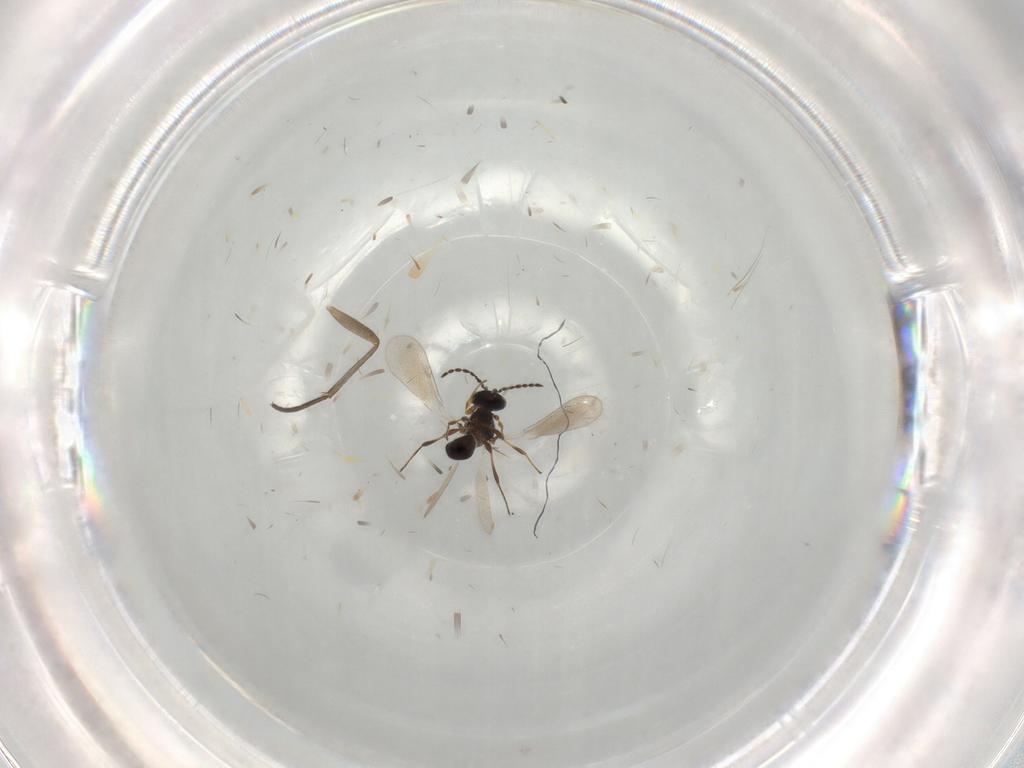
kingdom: Animalia
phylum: Arthropoda
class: Insecta
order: Hymenoptera
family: Platygastridae
